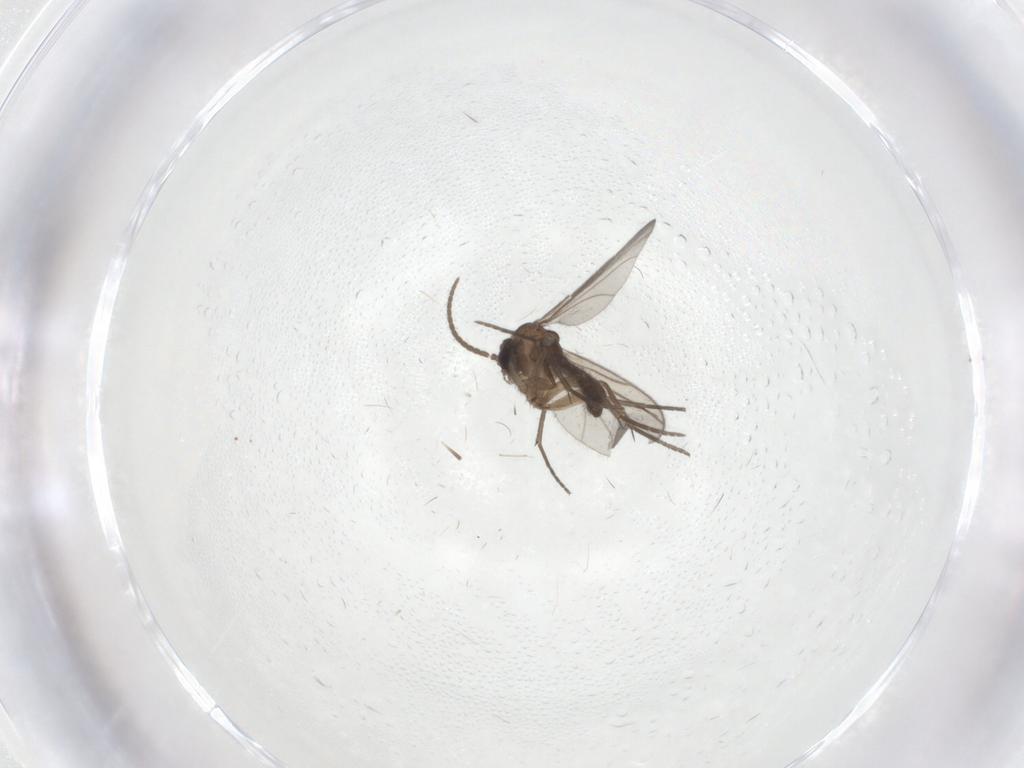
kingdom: Animalia
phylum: Arthropoda
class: Insecta
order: Diptera
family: Sciaridae
